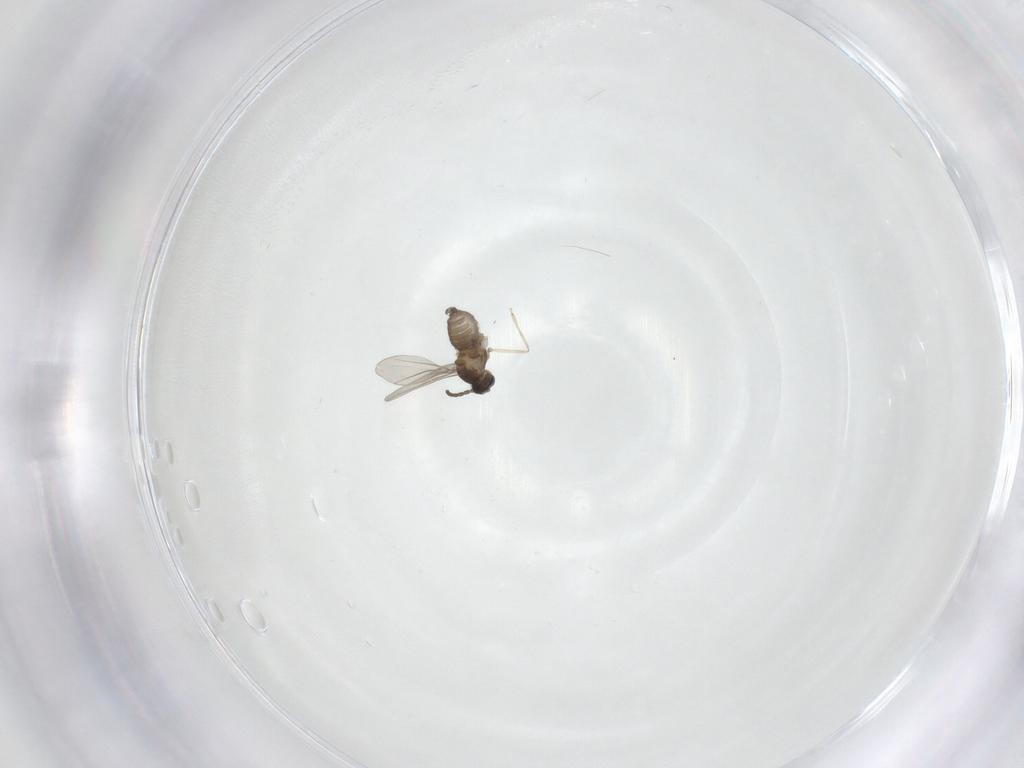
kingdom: Animalia
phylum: Arthropoda
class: Insecta
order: Diptera
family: Cecidomyiidae
